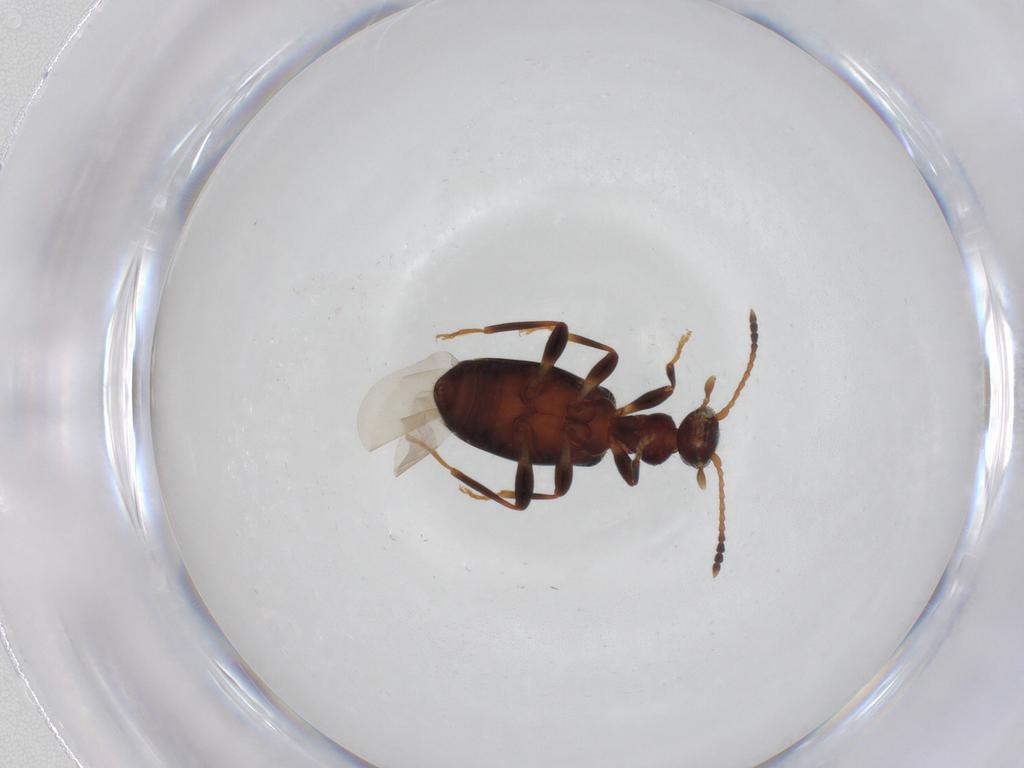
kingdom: Animalia
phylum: Arthropoda
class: Insecta
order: Coleoptera
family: Anthicidae
